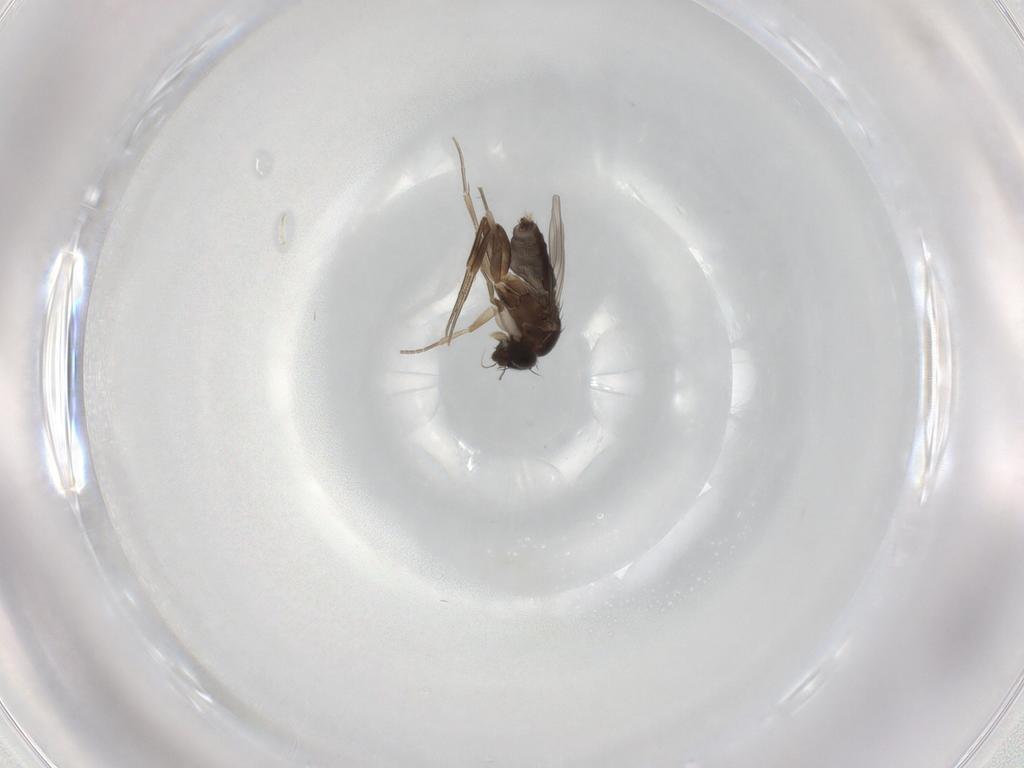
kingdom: Animalia
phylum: Arthropoda
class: Insecta
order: Diptera
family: Phoridae
